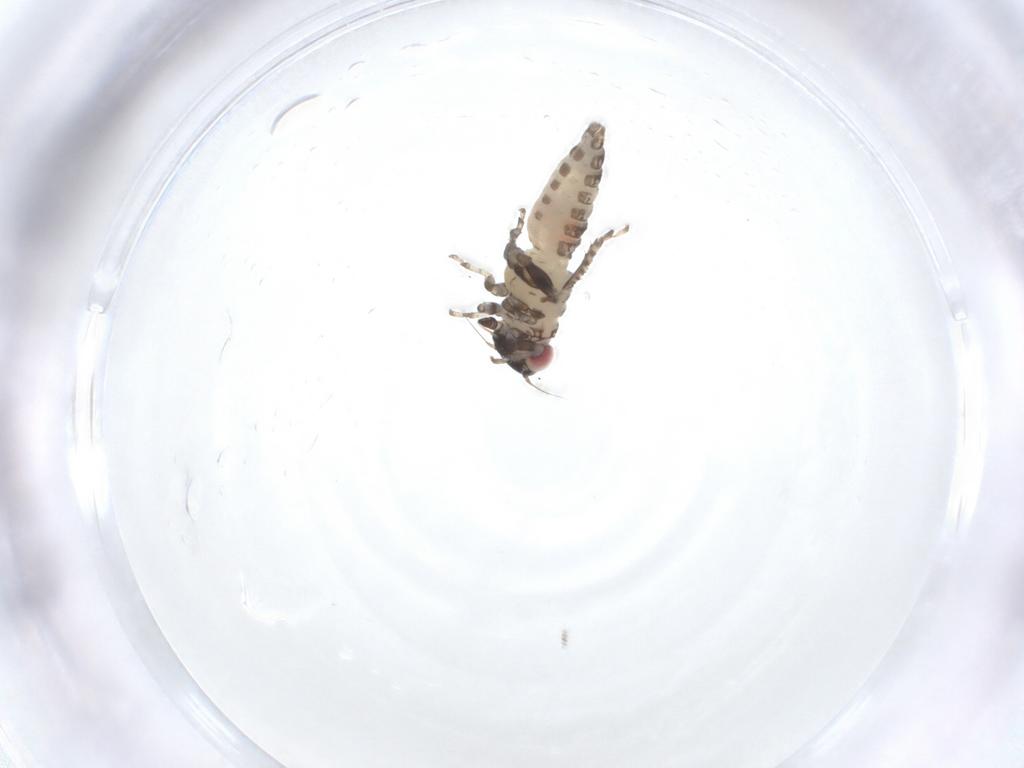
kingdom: Animalia
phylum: Arthropoda
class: Insecta
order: Hemiptera
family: Cicadellidae
